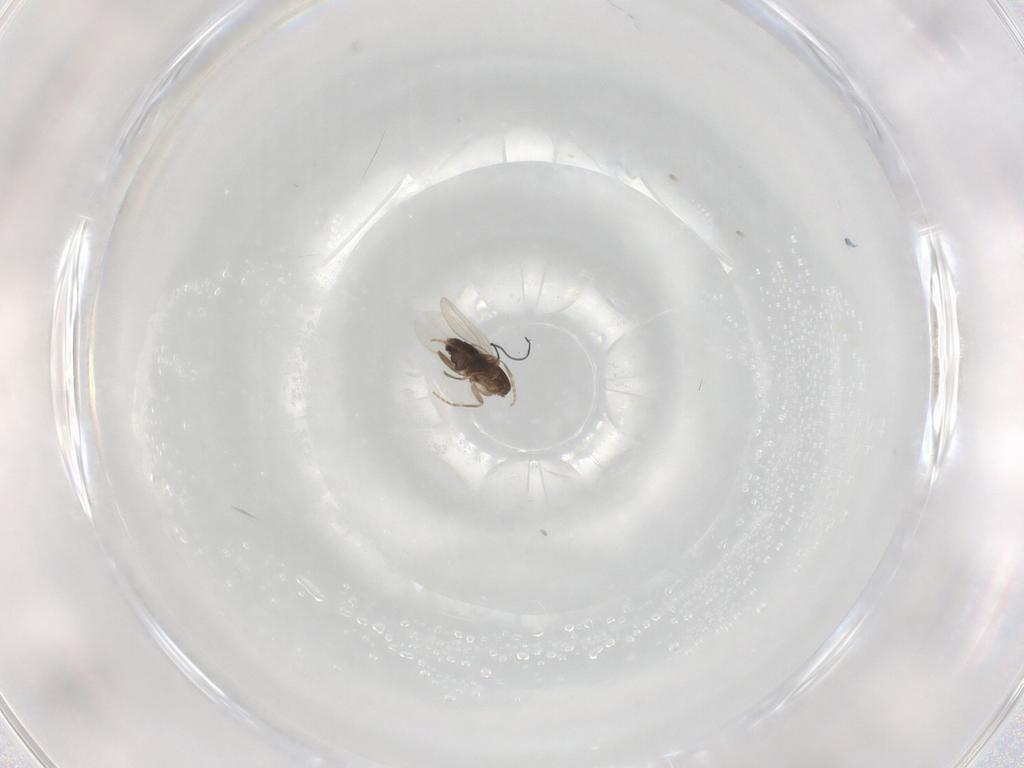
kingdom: Animalia
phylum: Arthropoda
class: Insecta
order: Diptera
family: Phoridae
